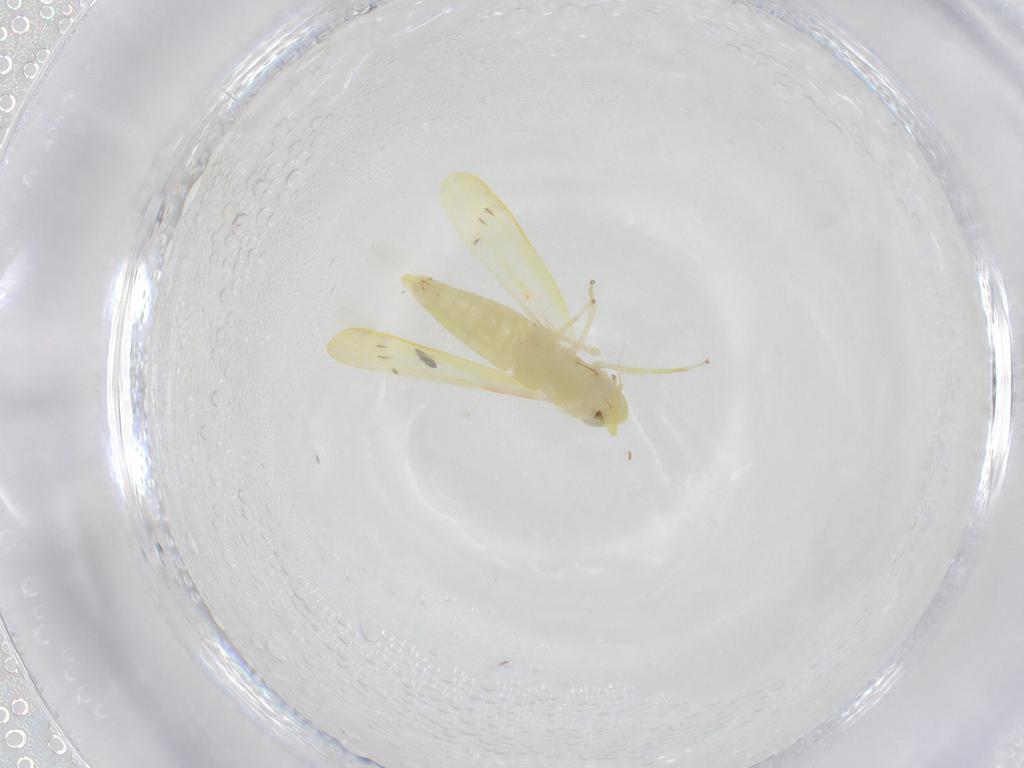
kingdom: Animalia
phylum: Arthropoda
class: Insecta
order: Hemiptera
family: Cicadellidae
